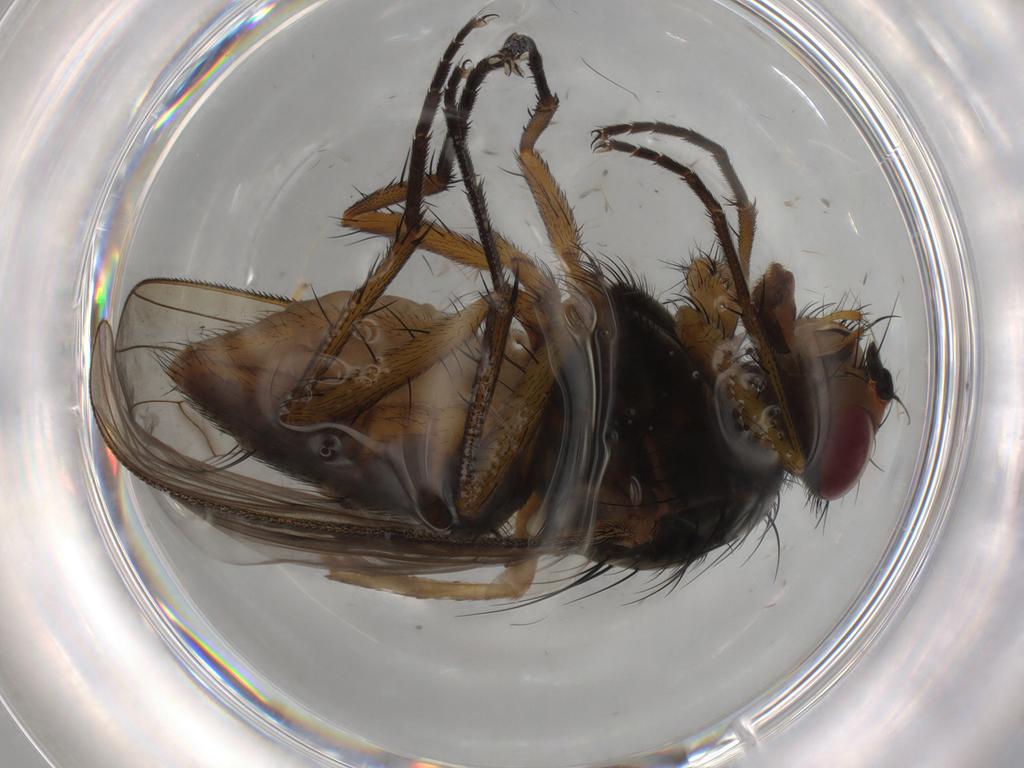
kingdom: Animalia
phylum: Arthropoda
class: Insecta
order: Diptera
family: Anthomyiidae
